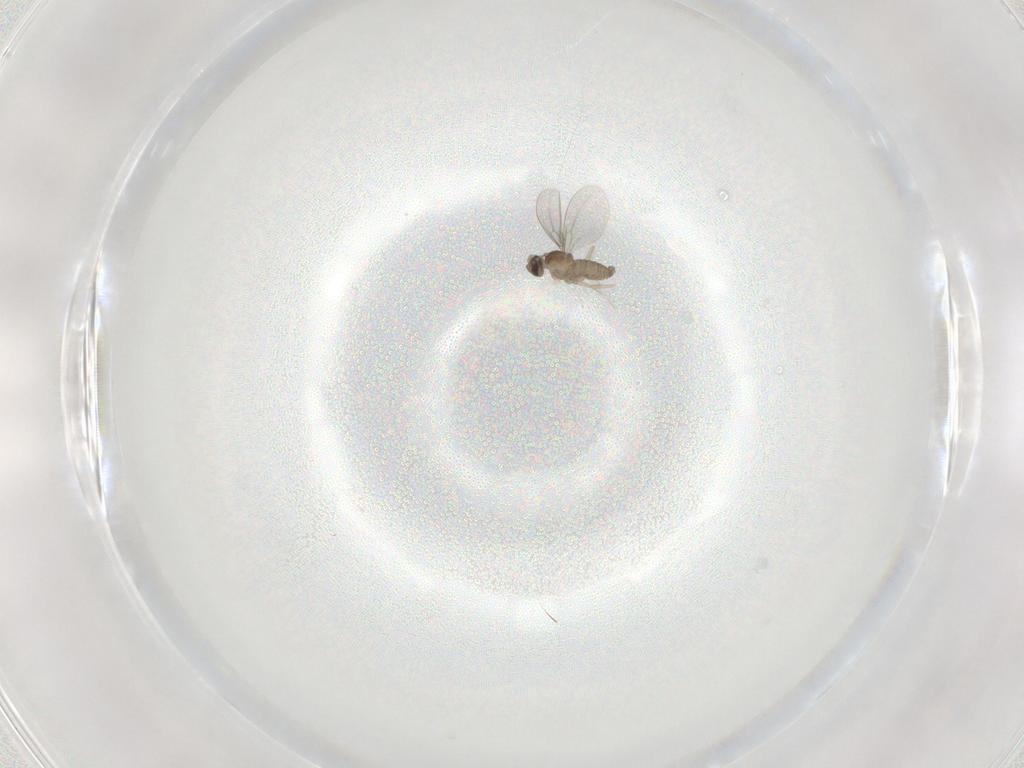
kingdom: Animalia
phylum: Arthropoda
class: Insecta
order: Diptera
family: Cecidomyiidae
